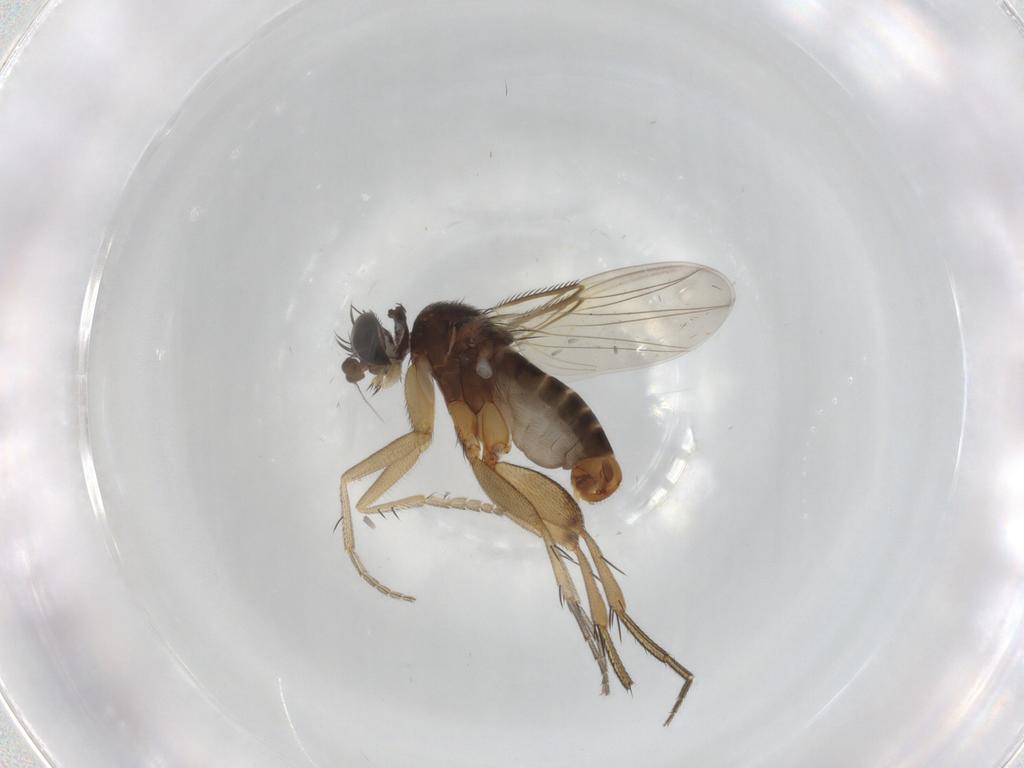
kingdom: Animalia
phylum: Arthropoda
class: Insecta
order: Diptera
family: Phoridae
